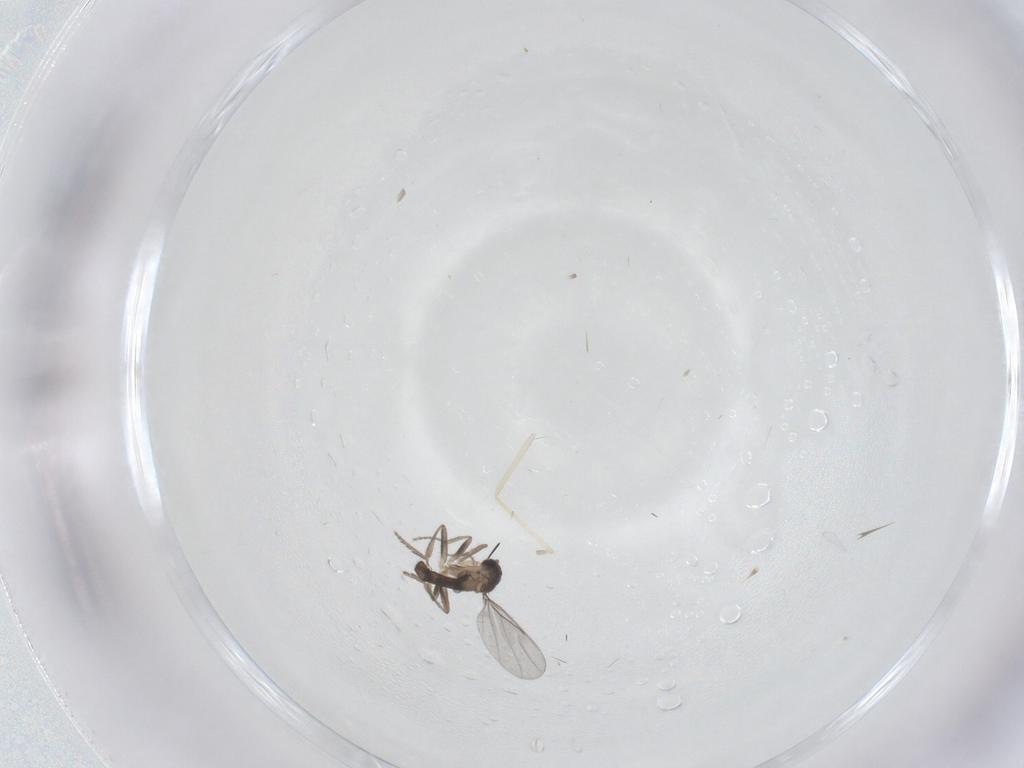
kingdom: Animalia
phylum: Arthropoda
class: Insecta
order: Diptera
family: Cecidomyiidae
